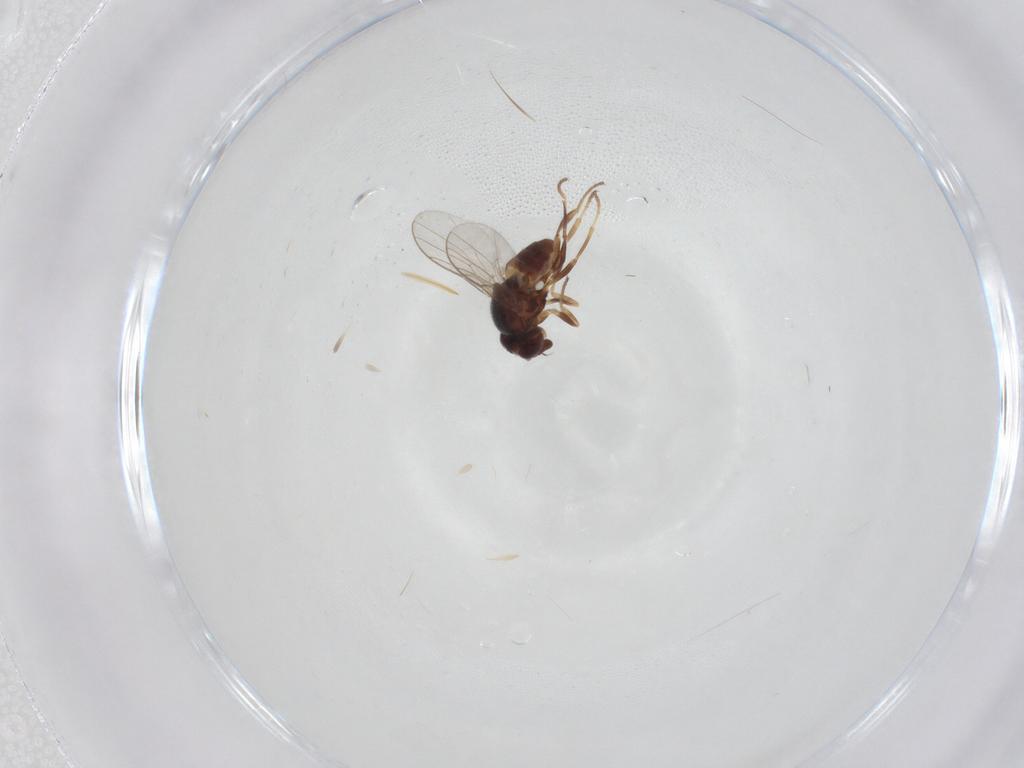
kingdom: Animalia
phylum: Arthropoda
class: Insecta
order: Diptera
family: Chloropidae
